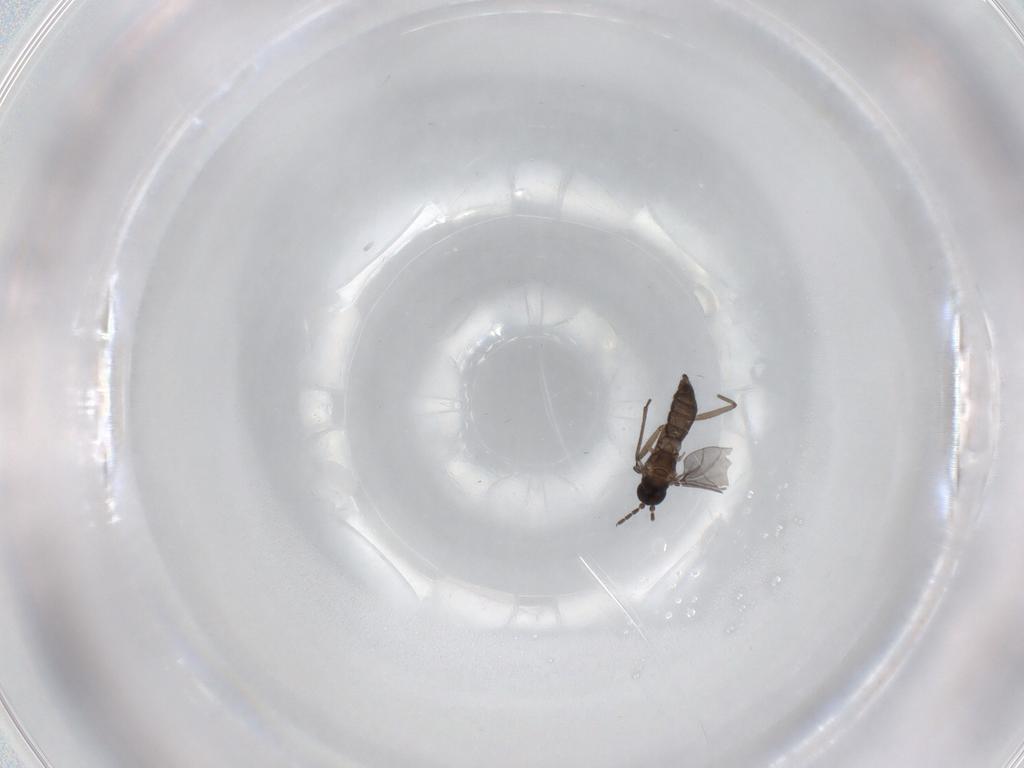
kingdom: Animalia
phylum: Arthropoda
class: Insecta
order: Diptera
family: Sciaridae
